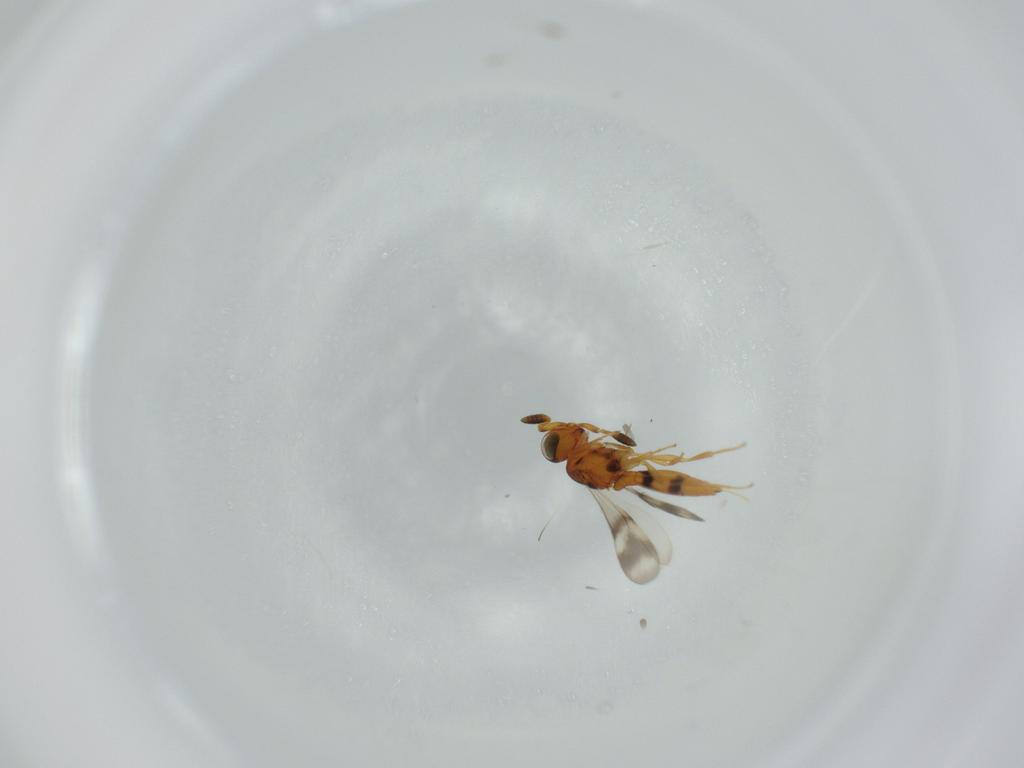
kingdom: Animalia
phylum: Arthropoda
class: Insecta
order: Hymenoptera
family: Scelionidae
